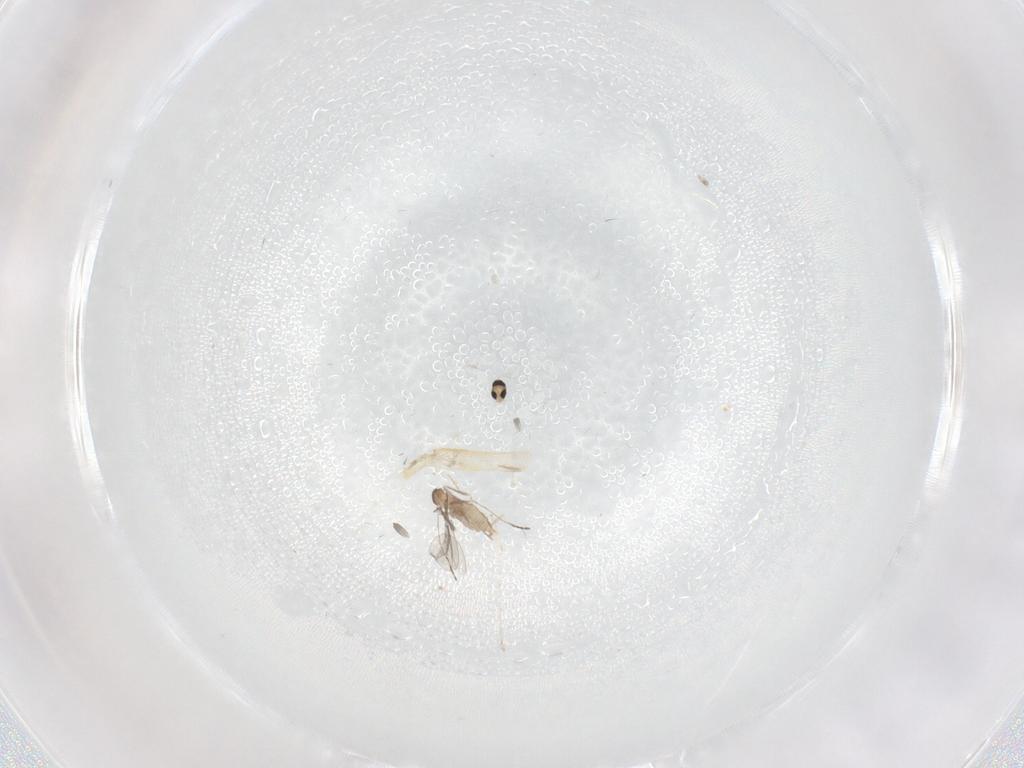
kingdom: Animalia
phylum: Arthropoda
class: Insecta
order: Diptera
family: Cecidomyiidae
